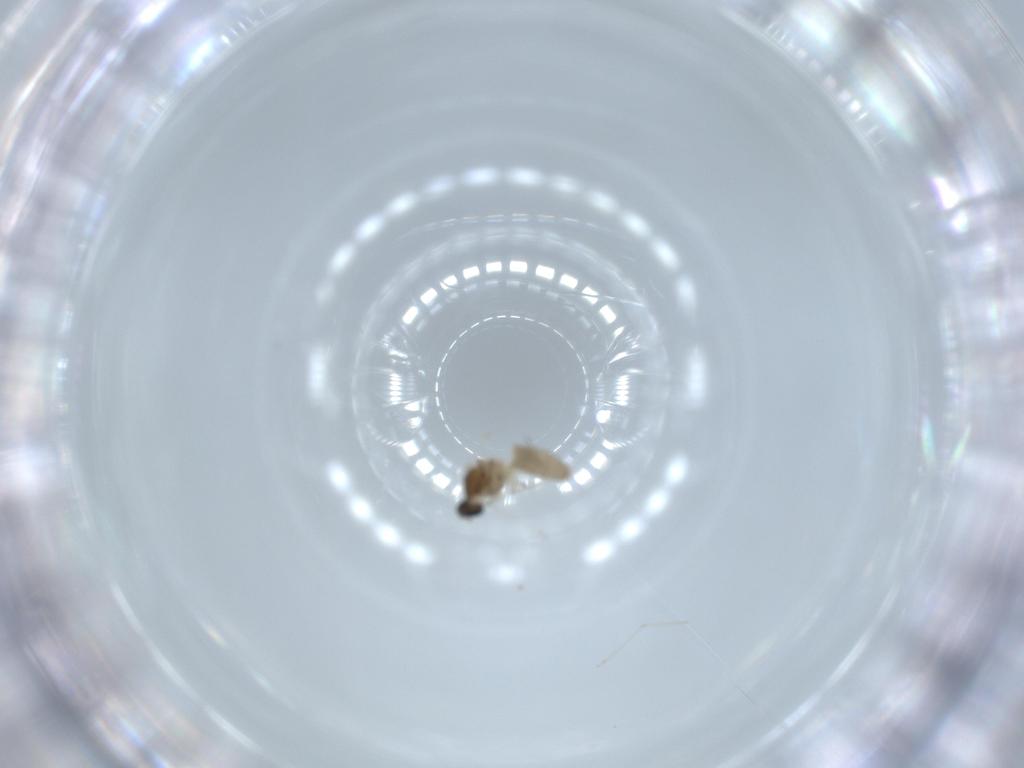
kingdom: Animalia
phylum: Arthropoda
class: Insecta
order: Diptera
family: Cecidomyiidae
